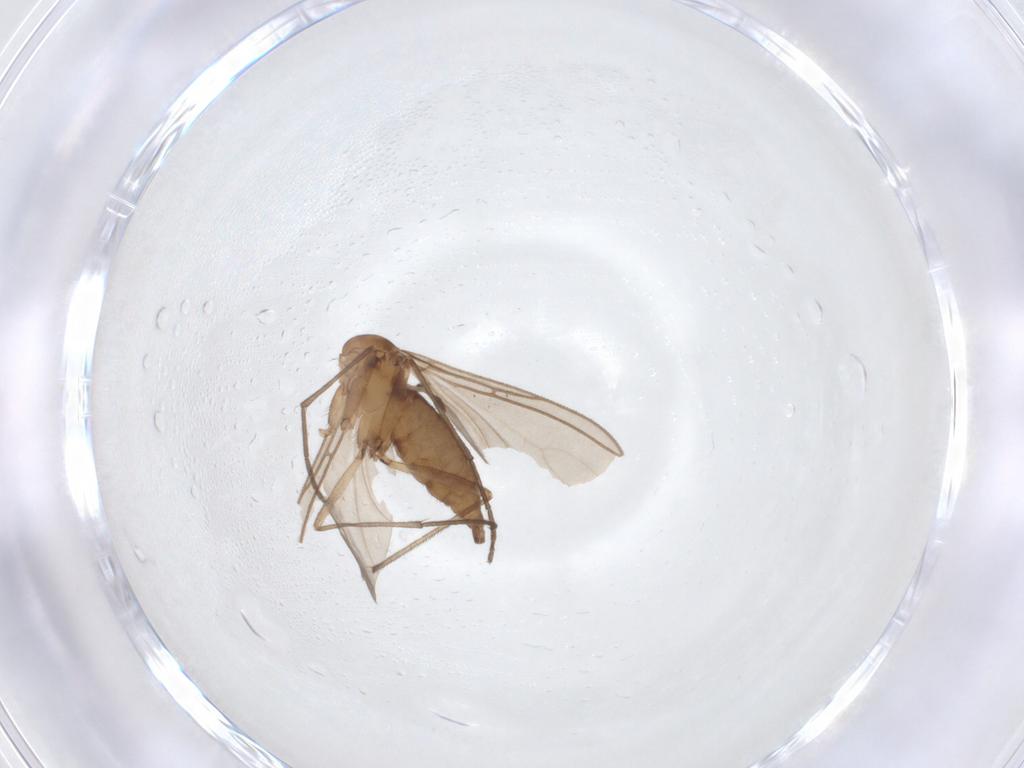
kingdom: Animalia
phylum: Arthropoda
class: Insecta
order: Diptera
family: Sciaridae
